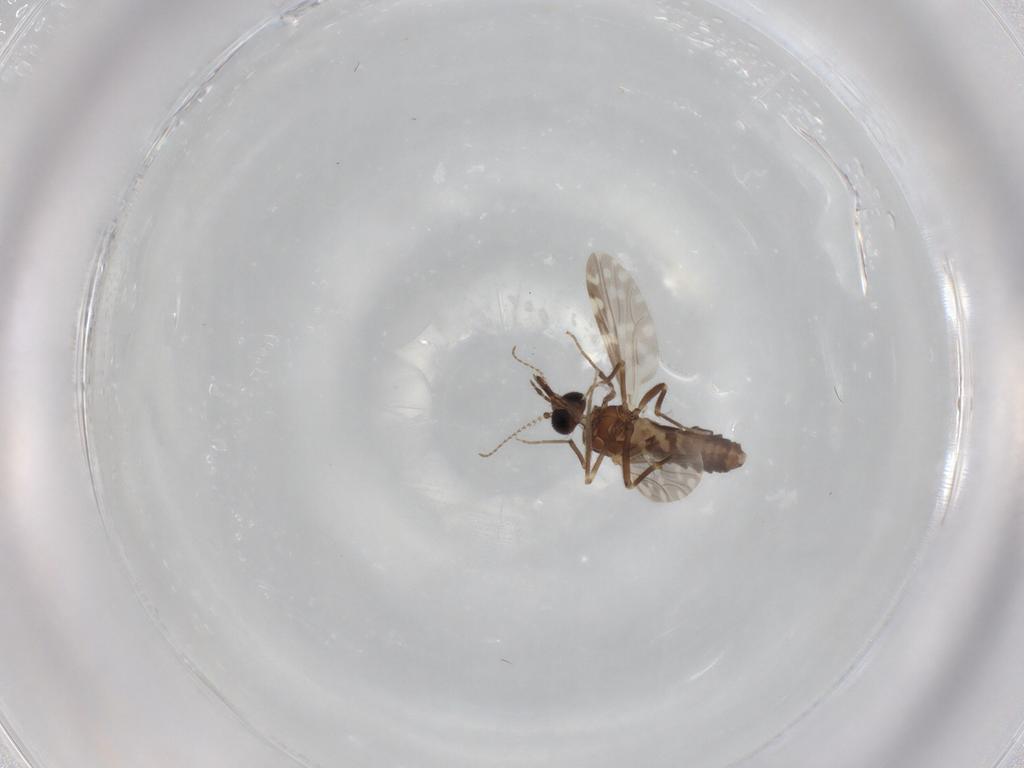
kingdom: Animalia
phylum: Arthropoda
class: Insecta
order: Diptera
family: Ceratopogonidae
